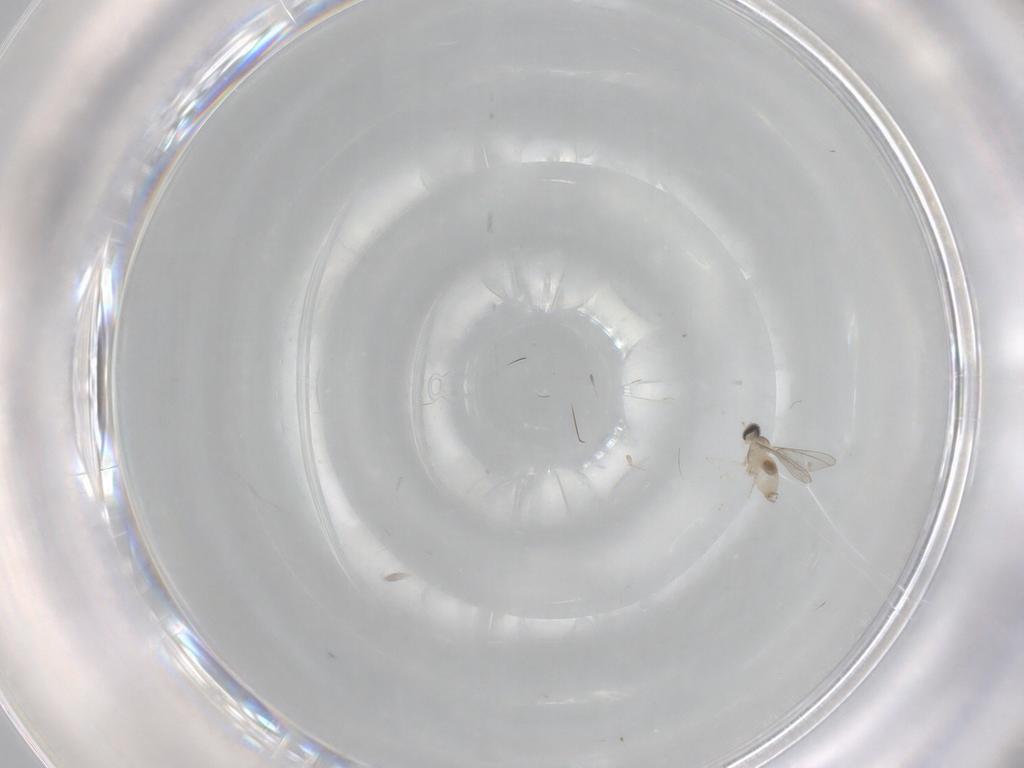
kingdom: Animalia
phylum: Arthropoda
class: Insecta
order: Diptera
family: Cecidomyiidae
